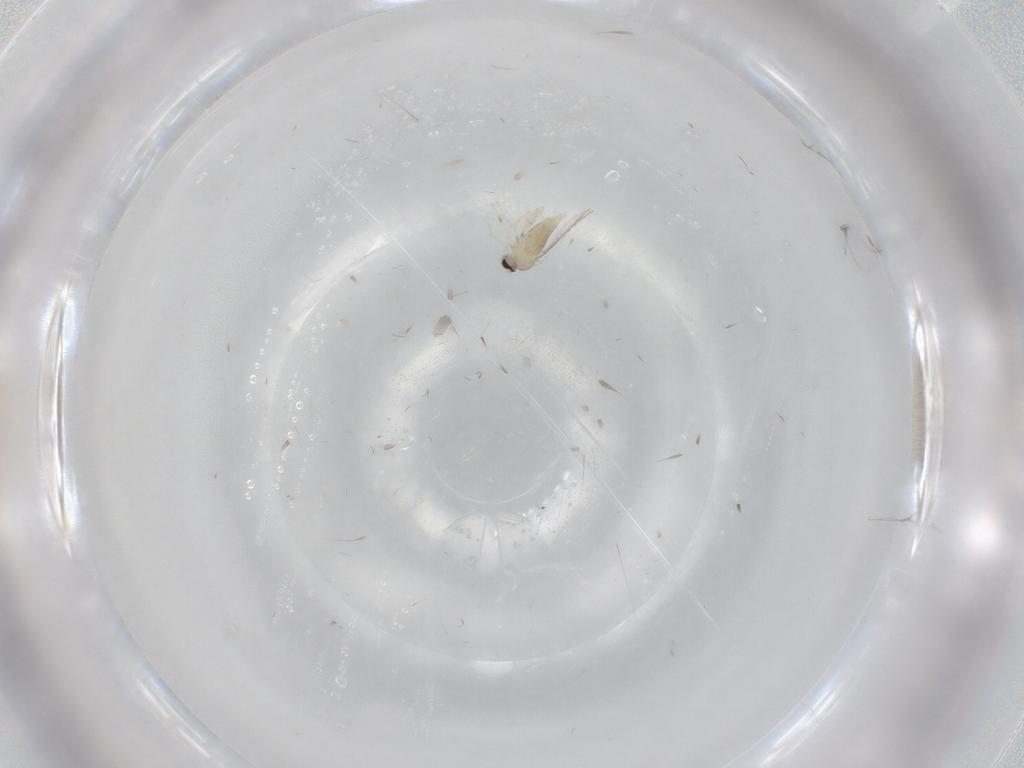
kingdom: Animalia
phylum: Arthropoda
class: Insecta
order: Diptera
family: Cecidomyiidae
